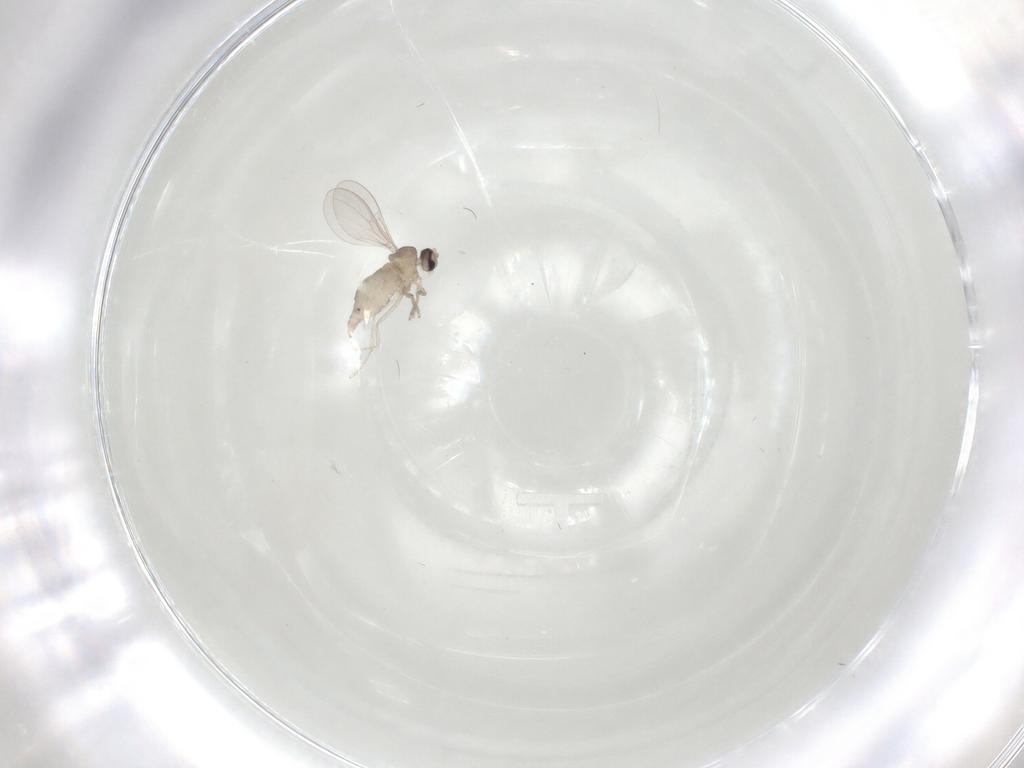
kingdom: Animalia
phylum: Arthropoda
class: Insecta
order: Diptera
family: Cecidomyiidae
